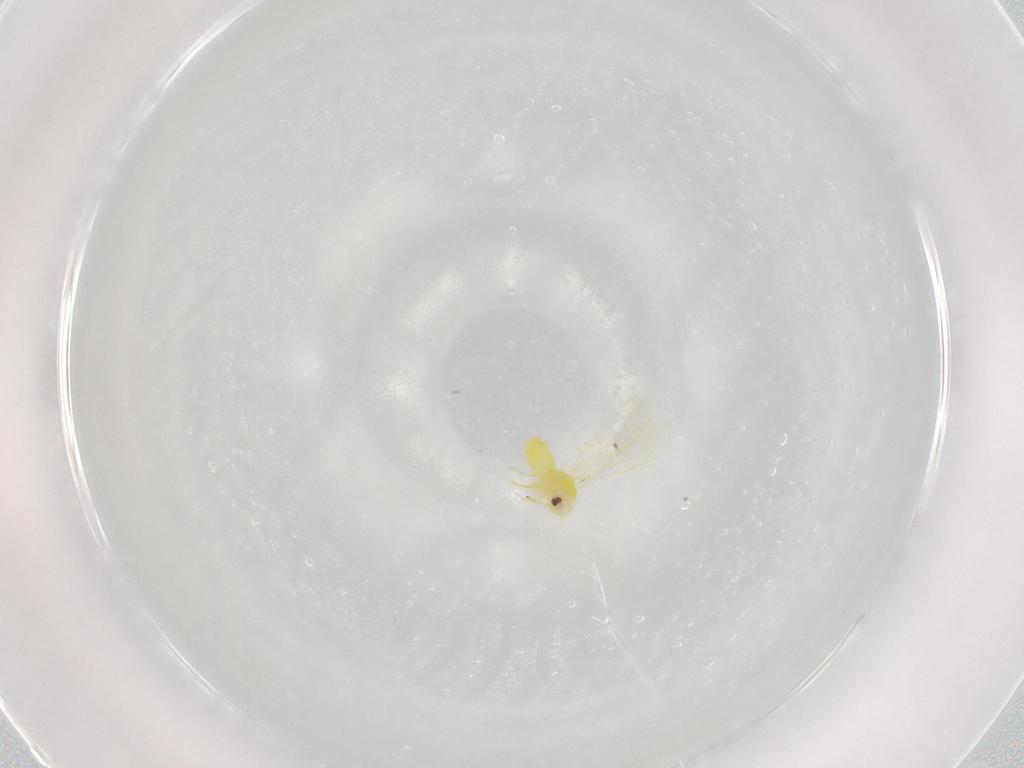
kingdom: Animalia
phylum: Arthropoda
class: Insecta
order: Hemiptera
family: Aleyrodidae
